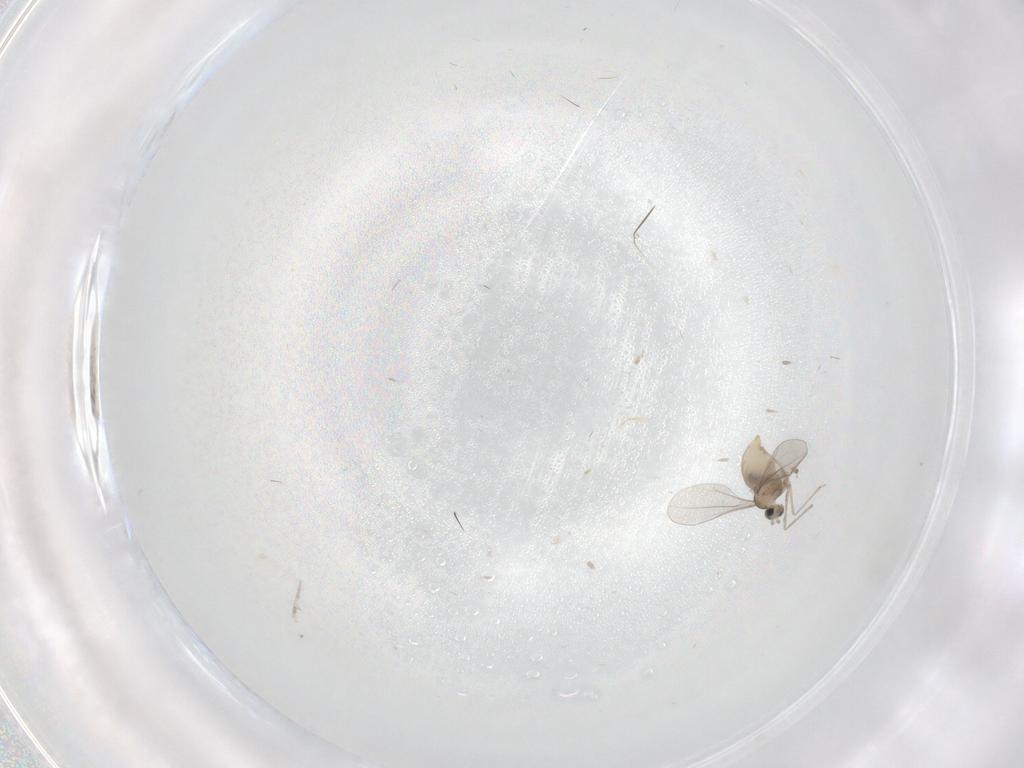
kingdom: Animalia
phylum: Arthropoda
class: Insecta
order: Diptera
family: Cecidomyiidae
